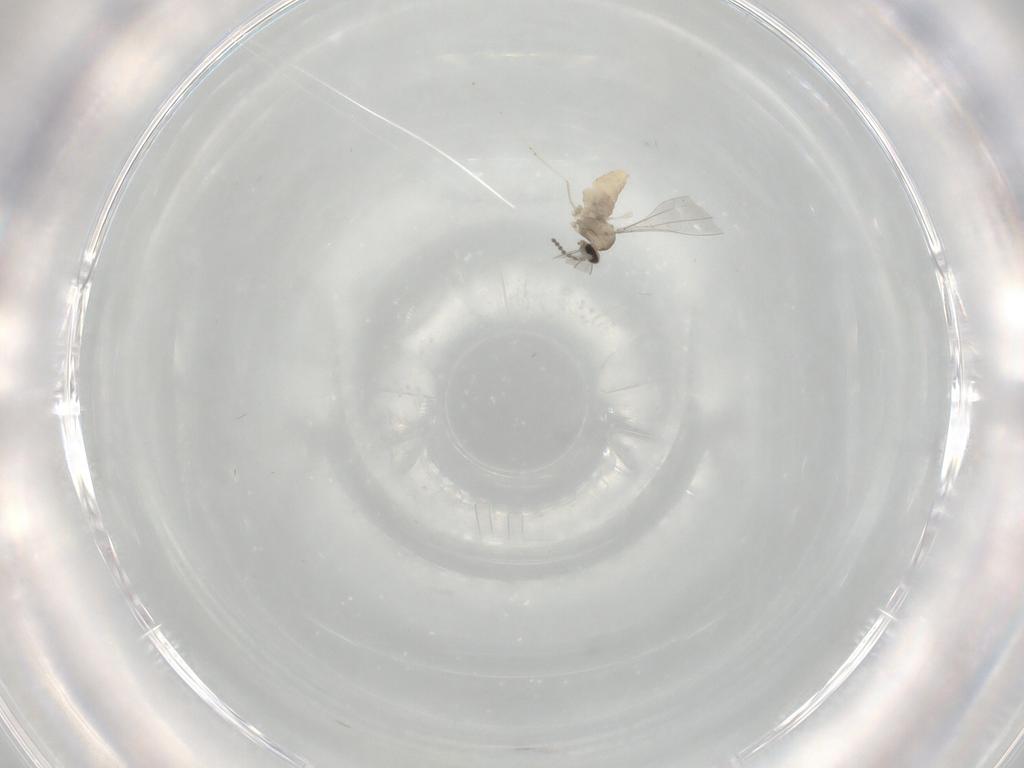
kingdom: Animalia
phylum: Arthropoda
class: Insecta
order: Diptera
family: Cecidomyiidae
